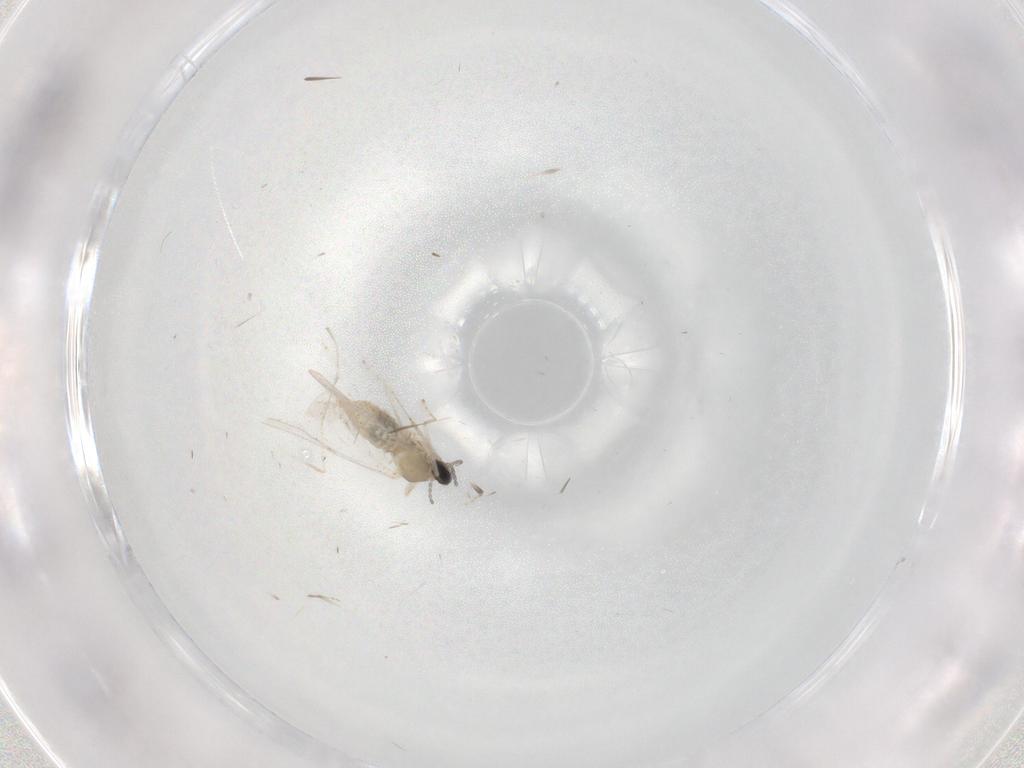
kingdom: Animalia
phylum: Arthropoda
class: Insecta
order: Diptera
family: Cecidomyiidae
